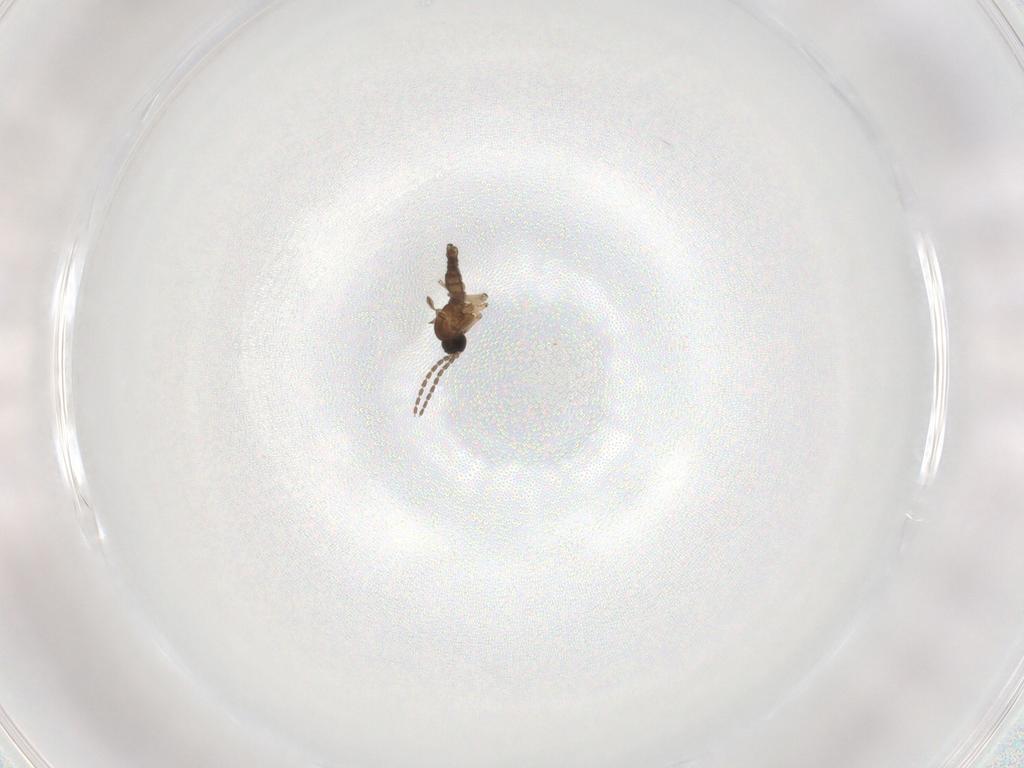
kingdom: Animalia
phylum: Arthropoda
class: Insecta
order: Diptera
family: Sciaridae
